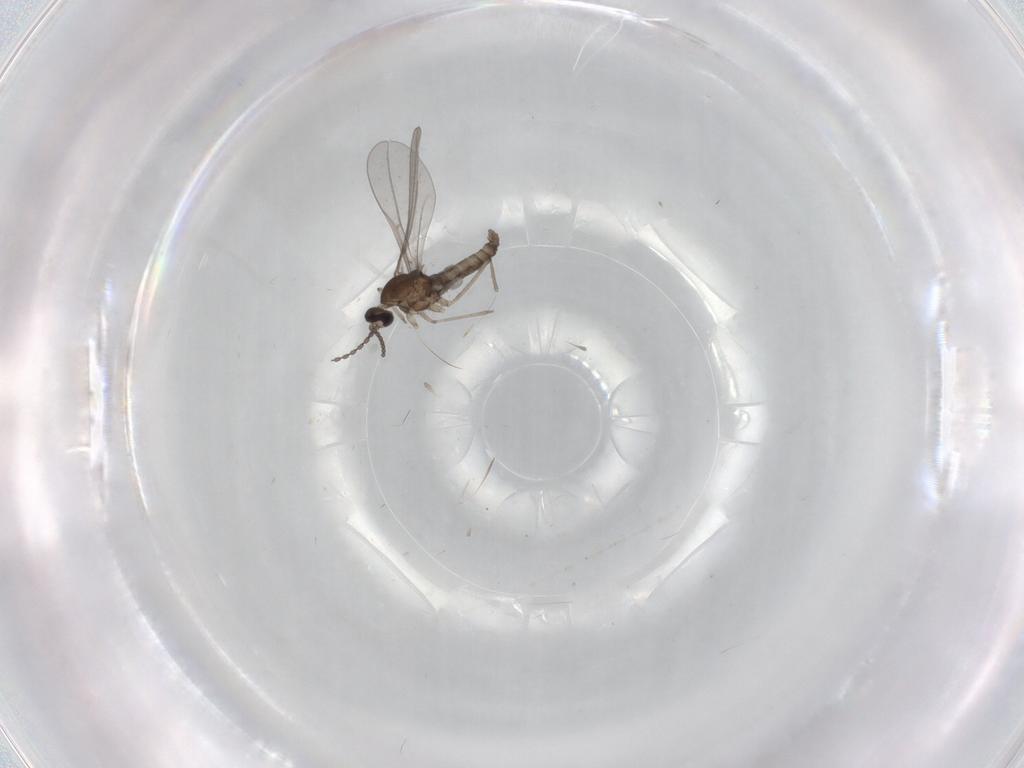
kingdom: Animalia
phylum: Arthropoda
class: Insecta
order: Diptera
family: Cecidomyiidae
